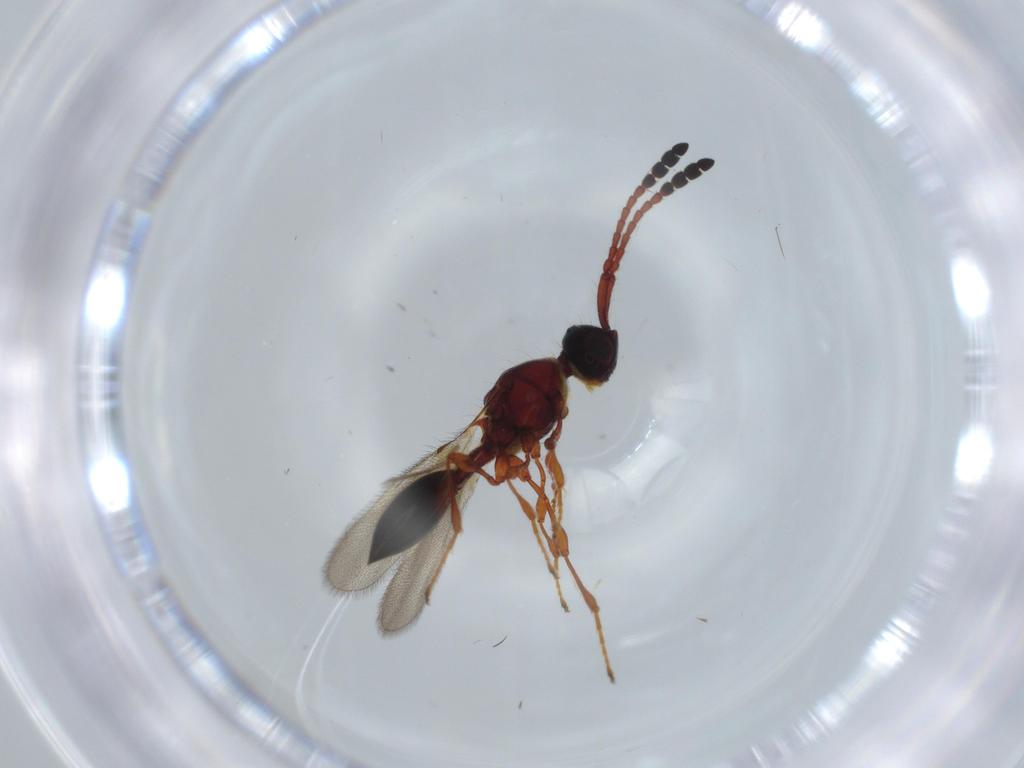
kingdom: Animalia
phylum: Arthropoda
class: Insecta
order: Hymenoptera
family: Diapriidae
